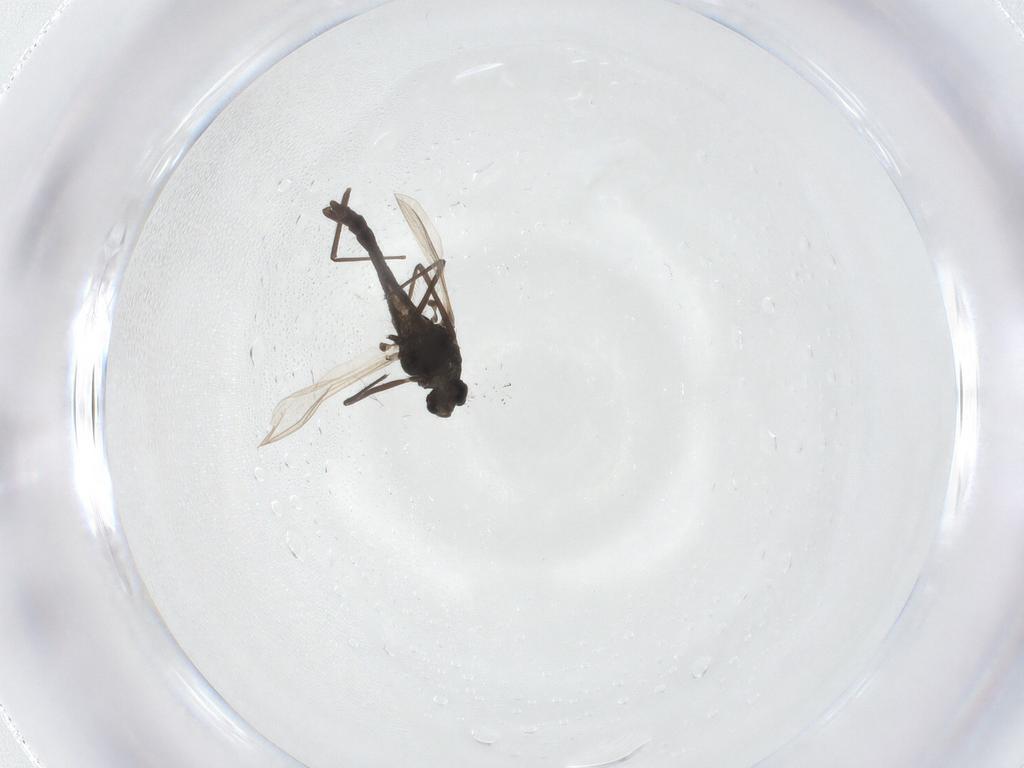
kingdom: Animalia
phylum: Arthropoda
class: Insecta
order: Diptera
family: Chironomidae
